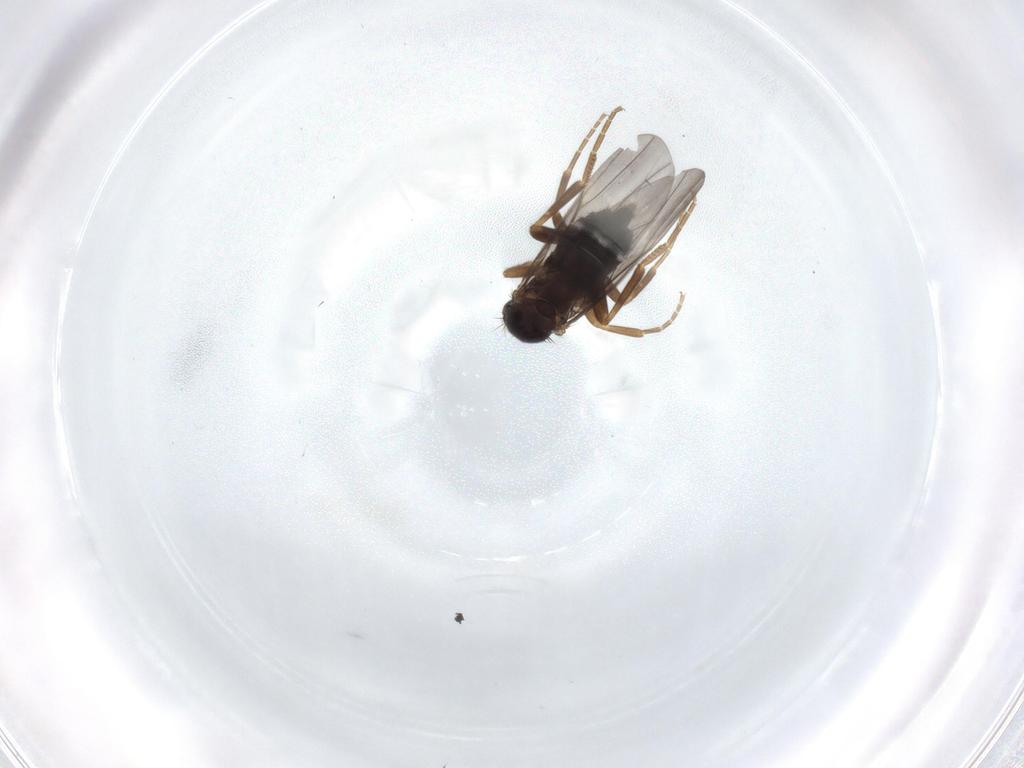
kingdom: Animalia
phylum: Arthropoda
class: Insecta
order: Diptera
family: Phoridae
